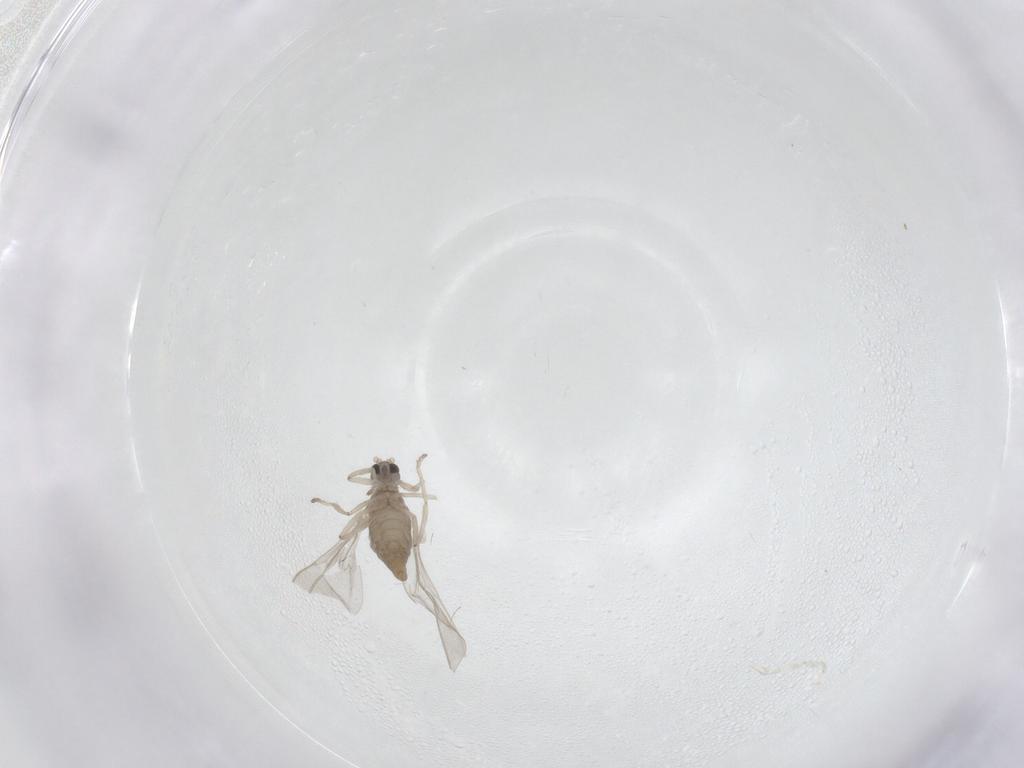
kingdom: Animalia
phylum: Arthropoda
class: Insecta
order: Diptera
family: Cecidomyiidae
